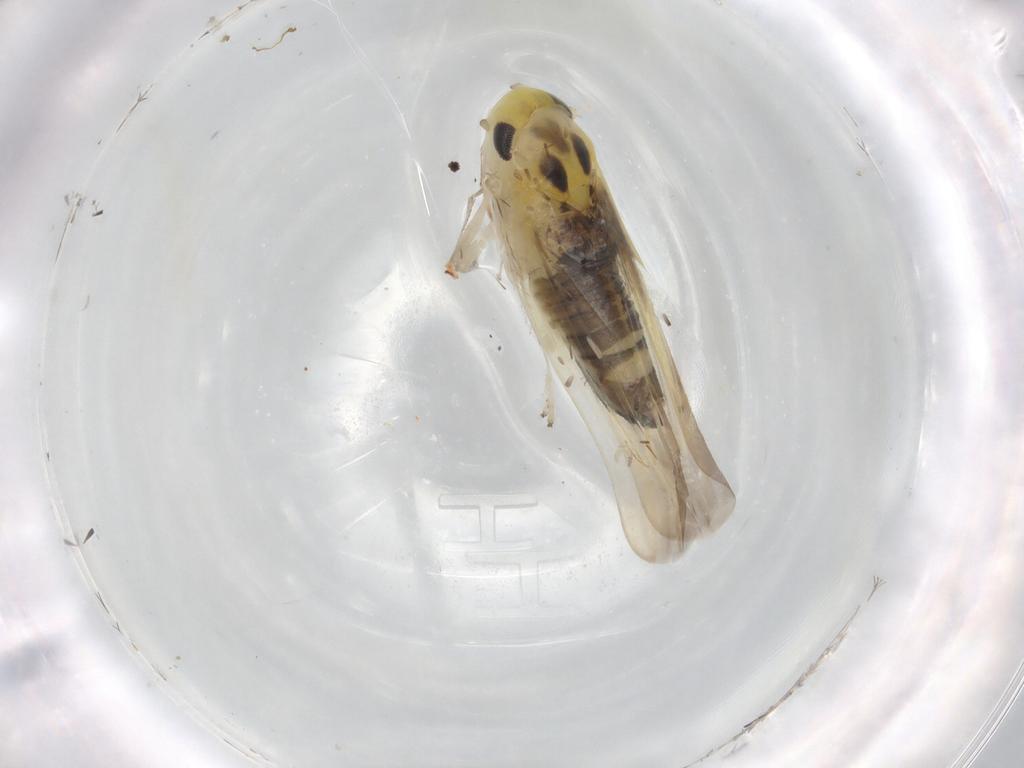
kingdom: Animalia
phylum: Arthropoda
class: Insecta
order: Hemiptera
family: Cicadellidae
